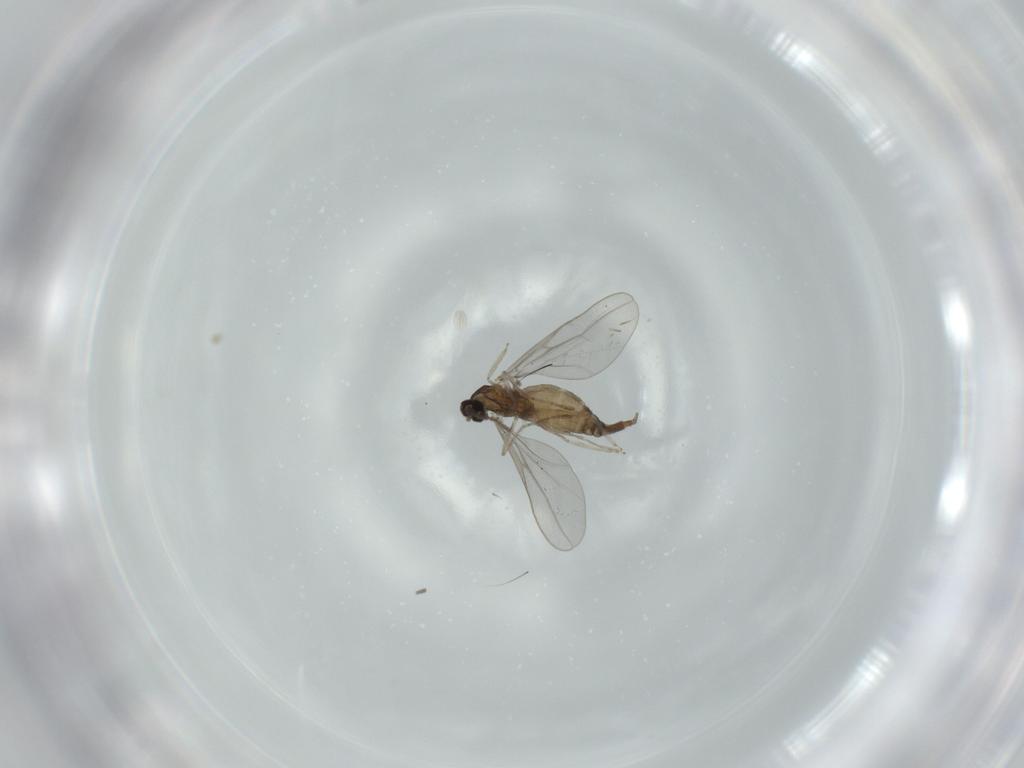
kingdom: Animalia
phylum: Arthropoda
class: Insecta
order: Diptera
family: Cecidomyiidae
